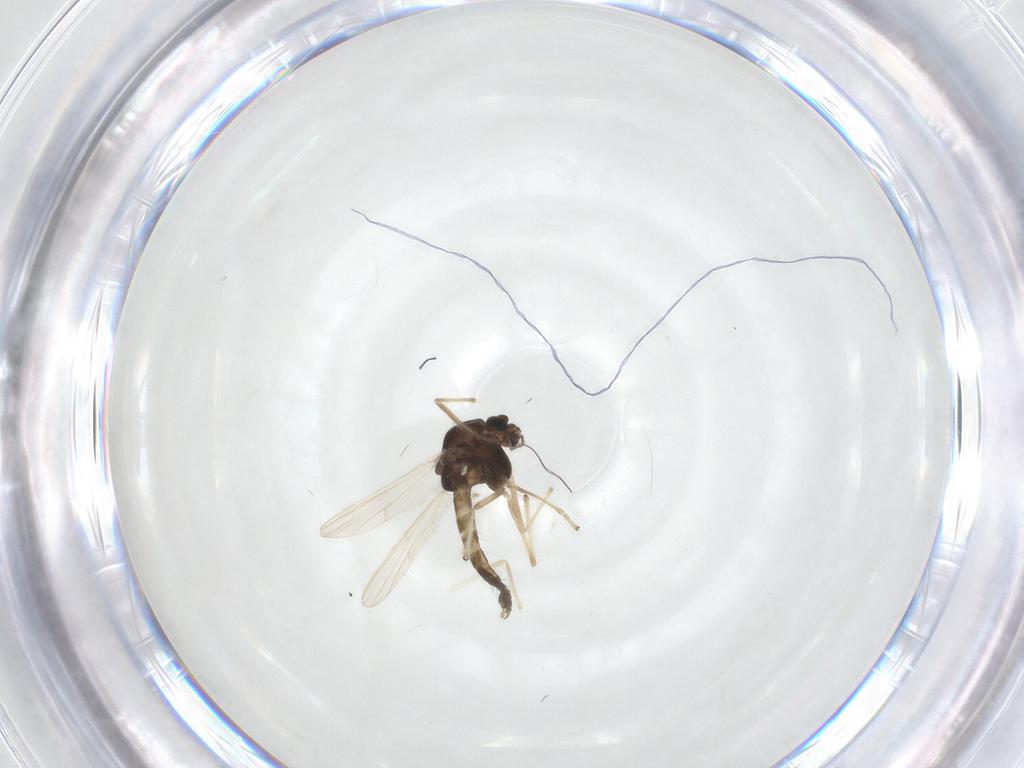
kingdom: Animalia
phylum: Arthropoda
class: Insecta
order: Diptera
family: Chironomidae
